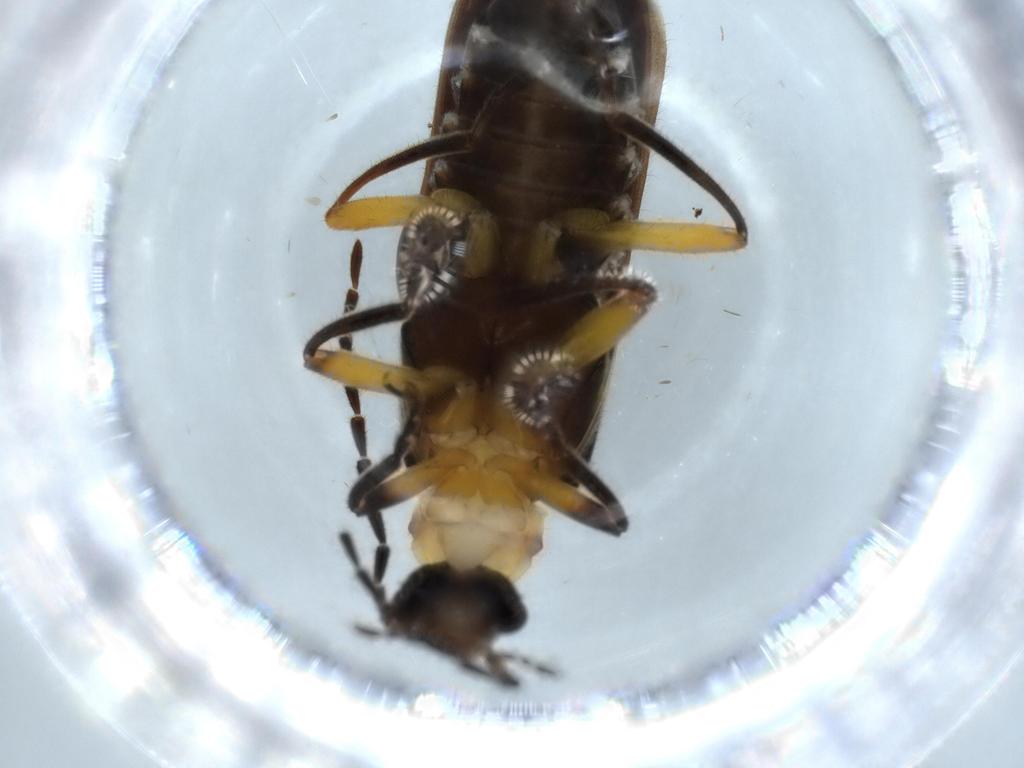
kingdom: Animalia
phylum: Arthropoda
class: Insecta
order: Coleoptera
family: Cantharidae
